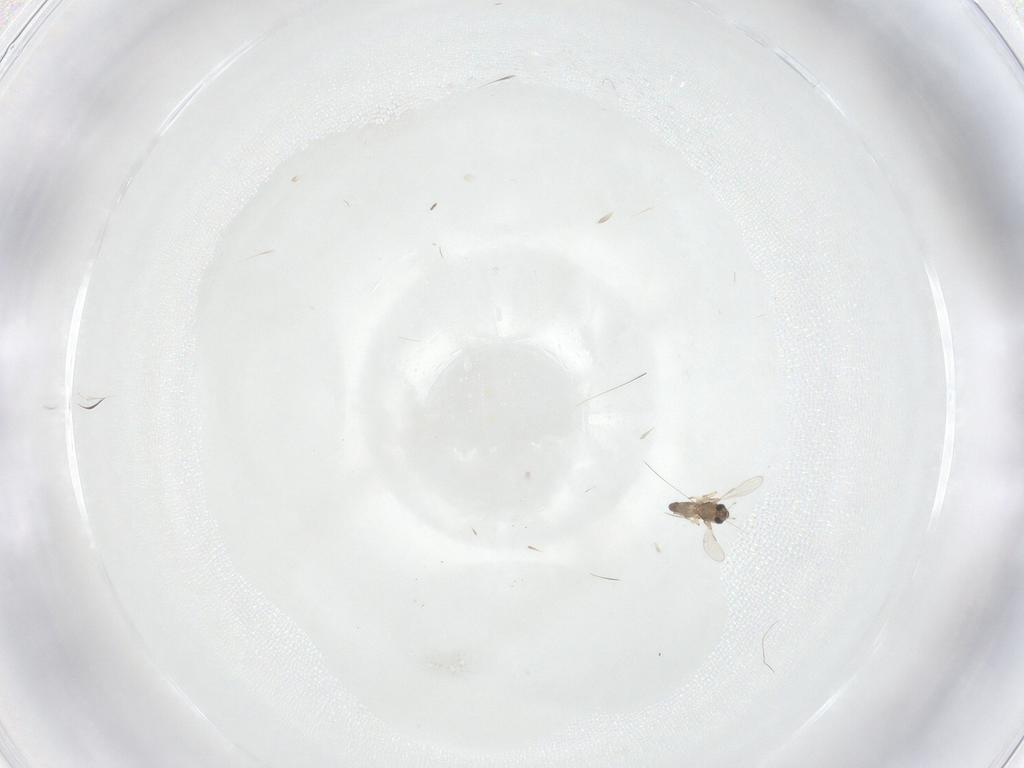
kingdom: Animalia
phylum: Arthropoda
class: Insecta
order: Diptera
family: Chironomidae
